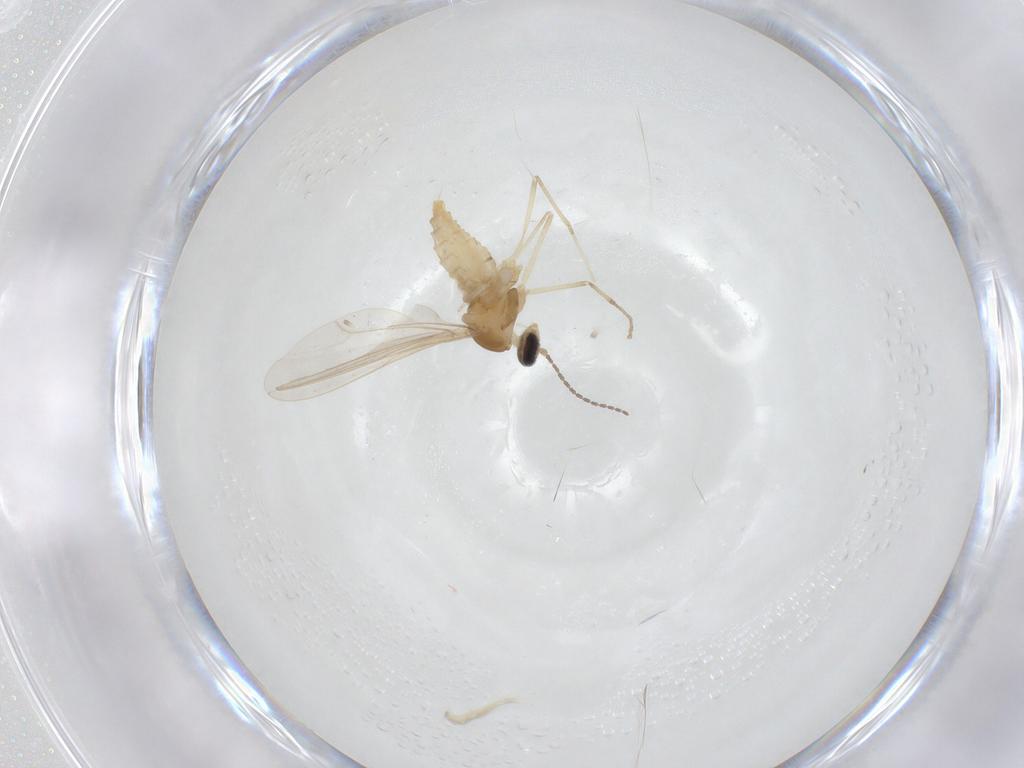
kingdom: Animalia
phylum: Arthropoda
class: Insecta
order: Diptera
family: Cecidomyiidae
